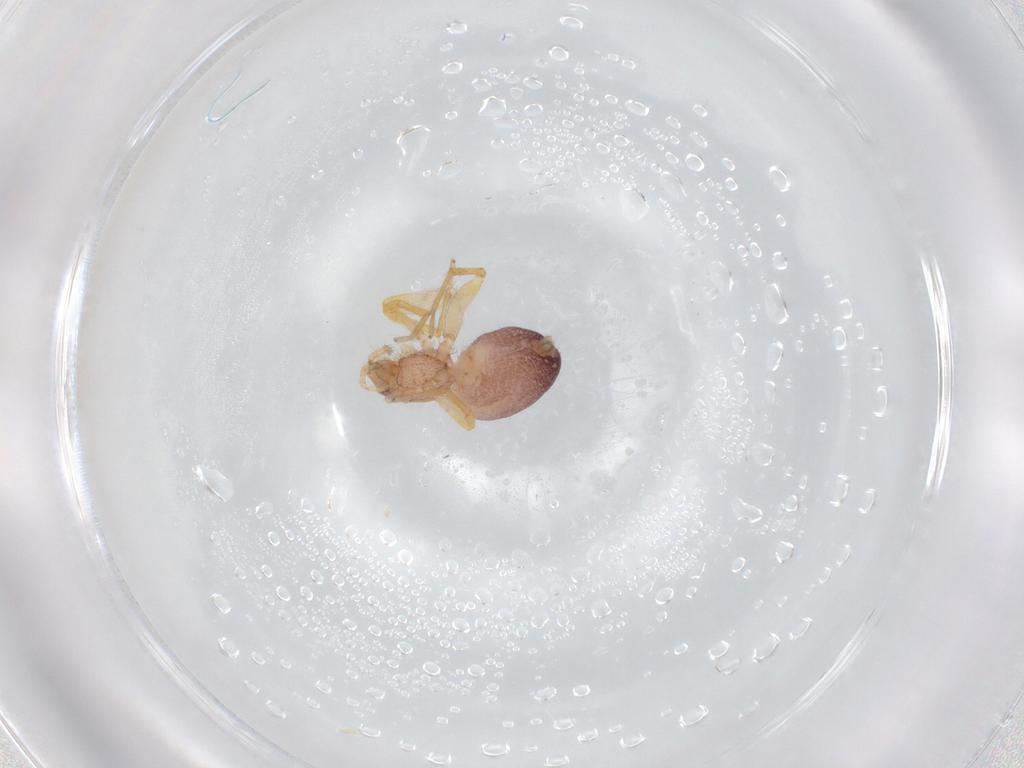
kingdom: Animalia
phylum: Arthropoda
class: Arachnida
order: Araneae
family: Idiopidae
